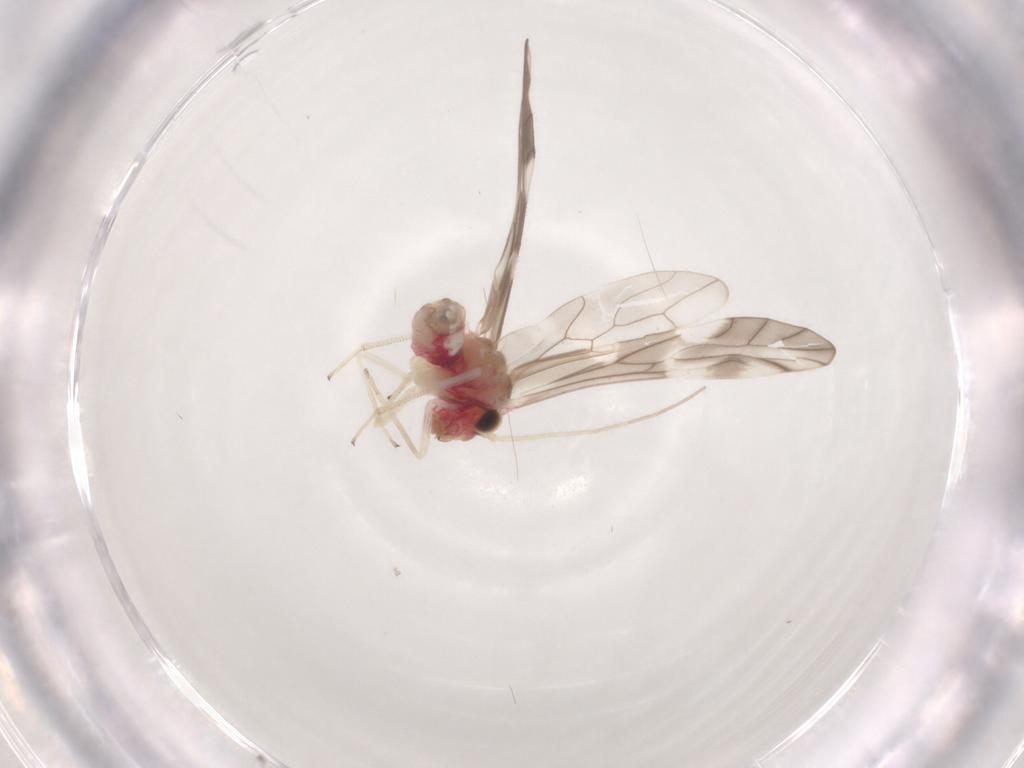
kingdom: Animalia
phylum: Arthropoda
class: Insecta
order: Psocodea
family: Caeciliusidae
